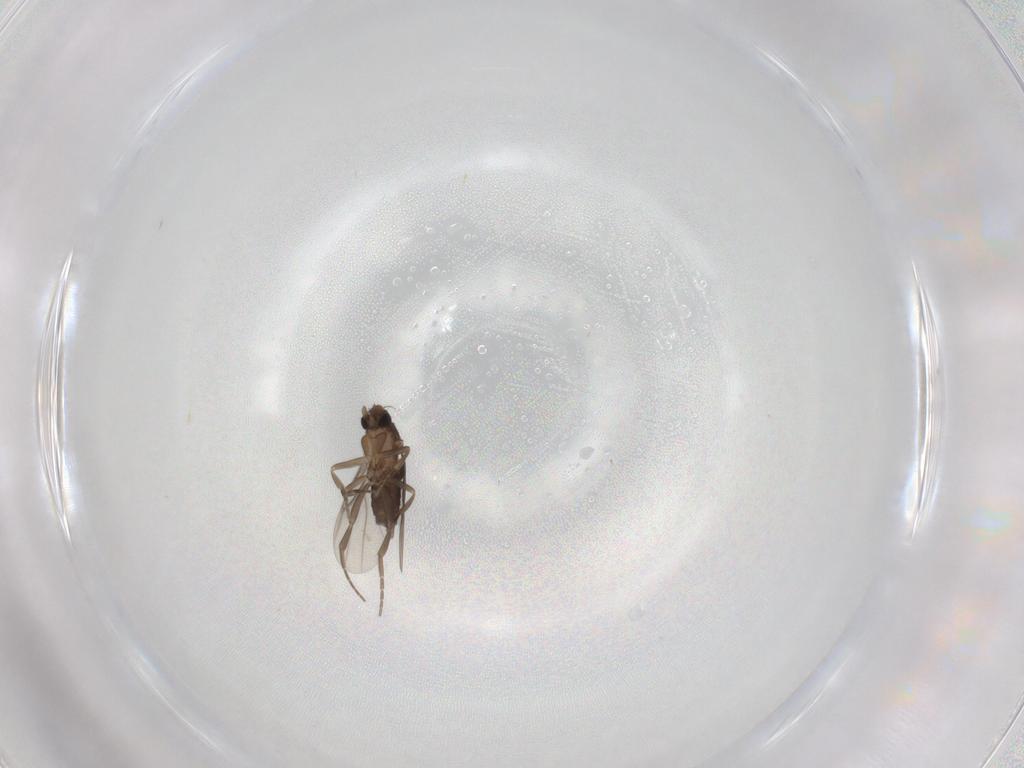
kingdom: Animalia
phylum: Arthropoda
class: Insecta
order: Diptera
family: Phoridae
